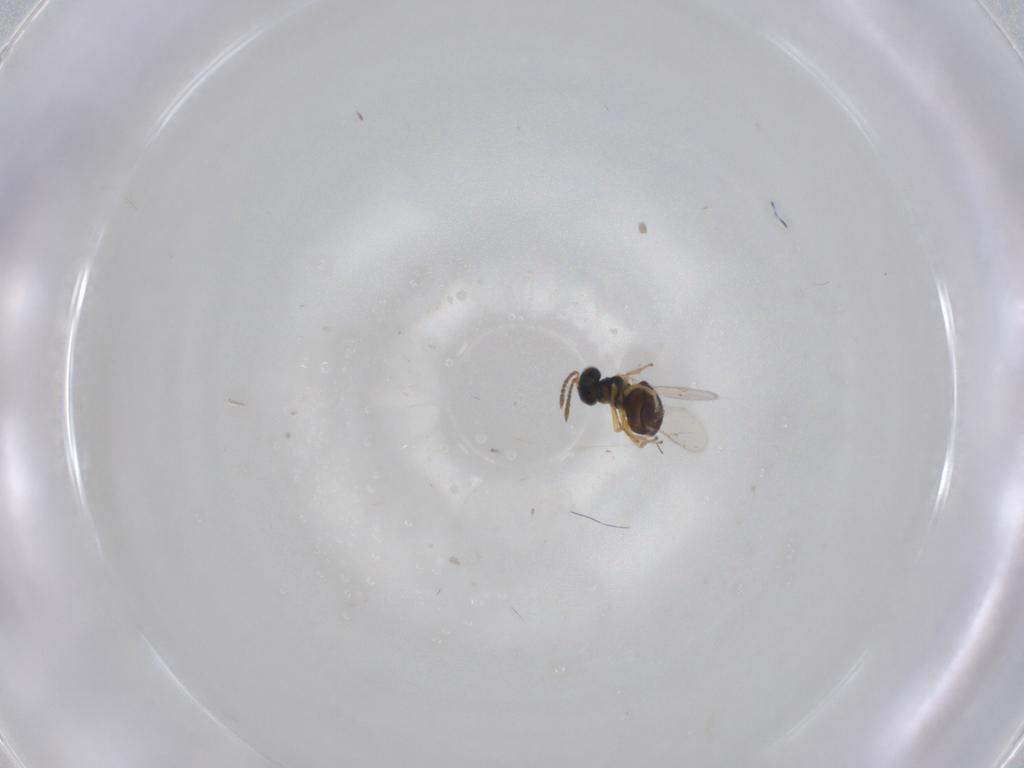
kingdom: Animalia
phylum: Arthropoda
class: Insecta
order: Hymenoptera
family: Pteromalidae
